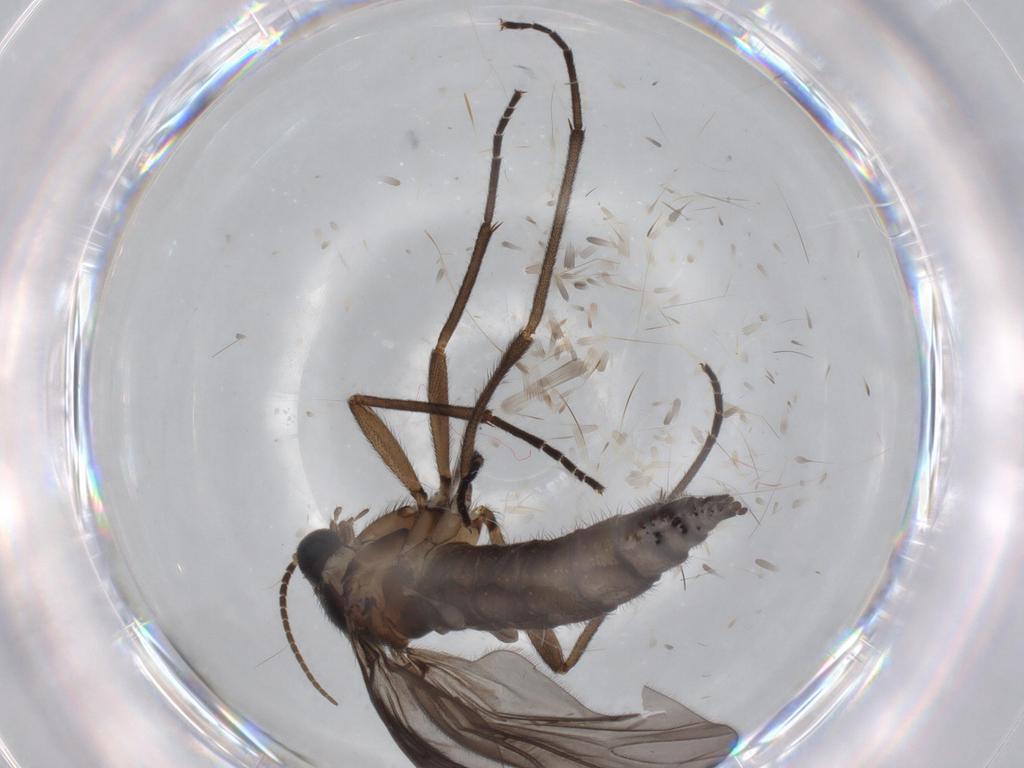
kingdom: Animalia
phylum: Arthropoda
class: Insecta
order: Diptera
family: Sciaridae
